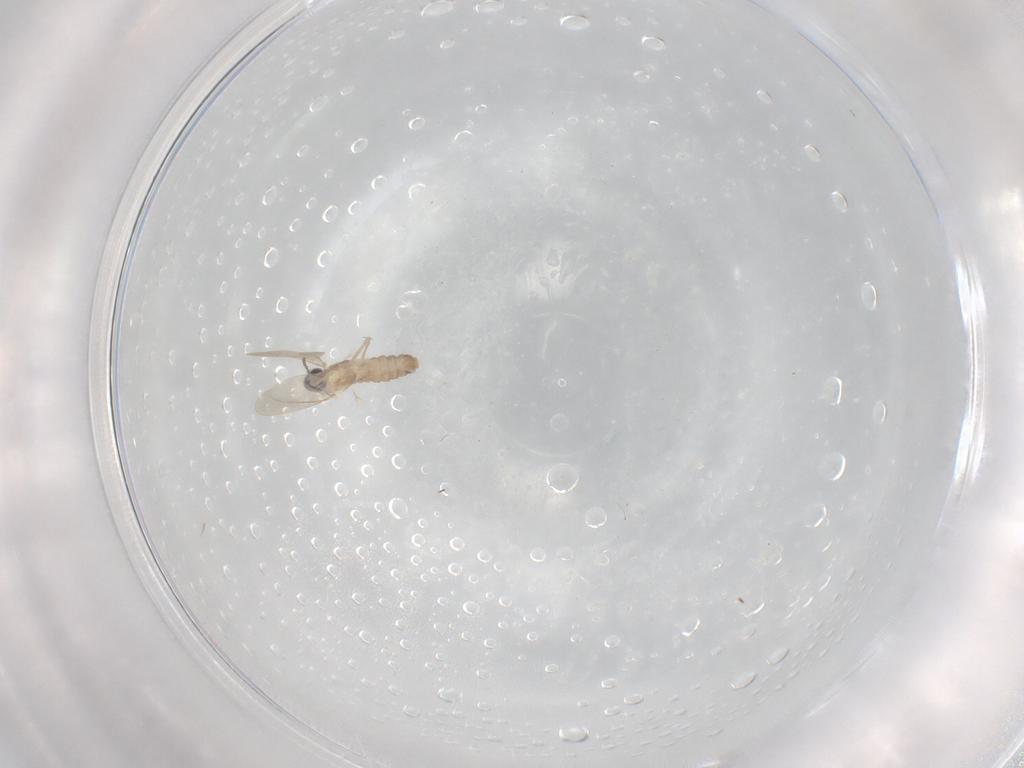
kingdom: Animalia
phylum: Arthropoda
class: Insecta
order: Diptera
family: Cecidomyiidae
